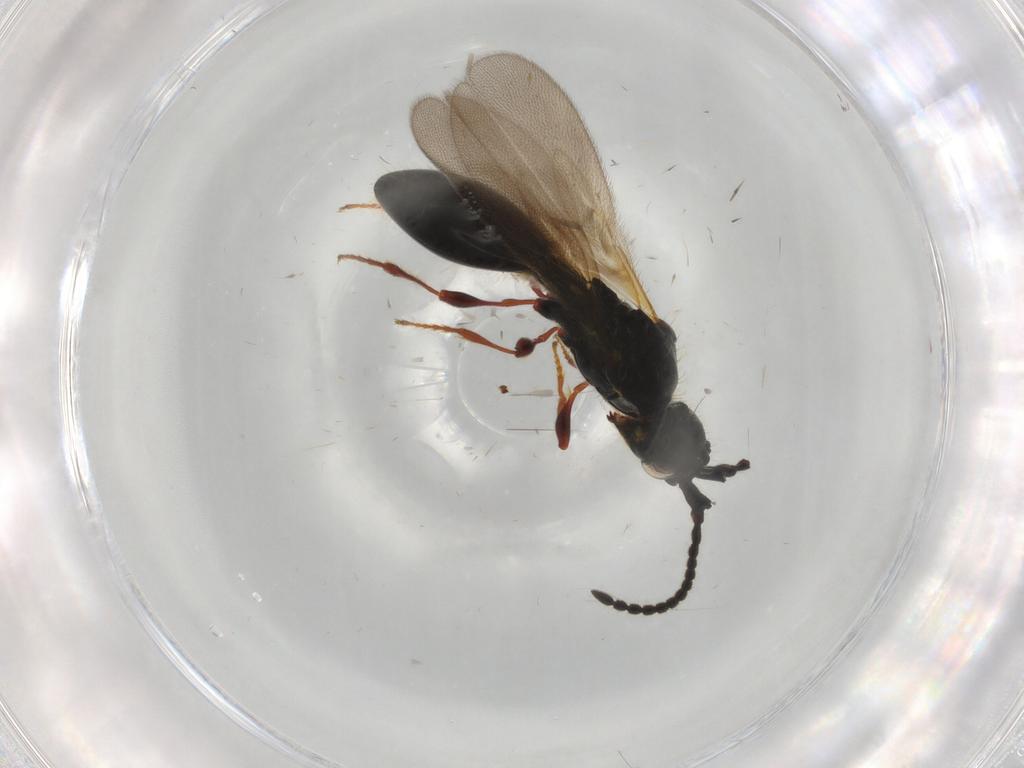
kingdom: Animalia
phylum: Arthropoda
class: Insecta
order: Hymenoptera
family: Diapriidae
